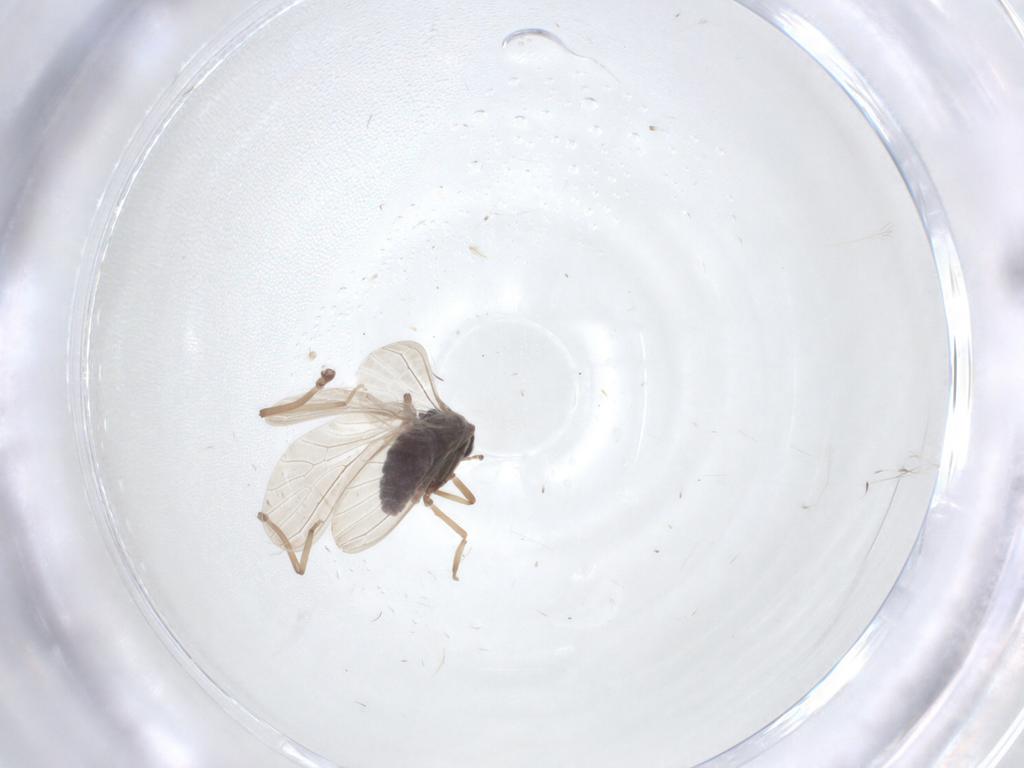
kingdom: Animalia
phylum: Arthropoda
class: Insecta
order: Neuroptera
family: Coniopterygidae
